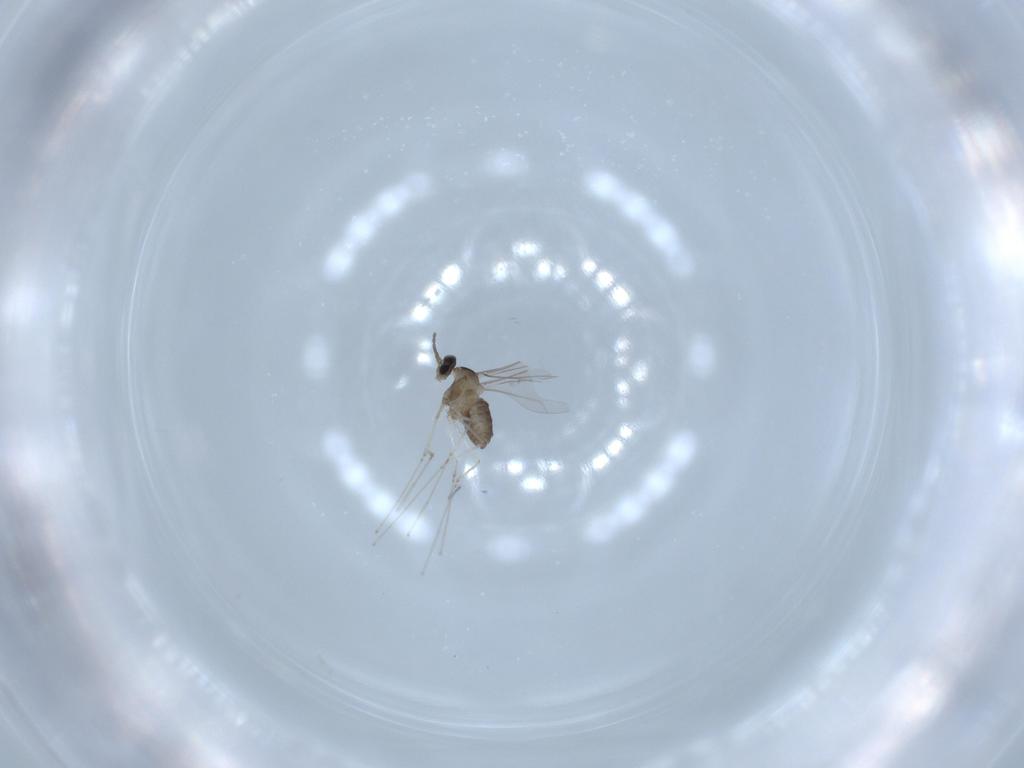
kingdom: Animalia
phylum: Arthropoda
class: Insecta
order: Diptera
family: Cecidomyiidae
